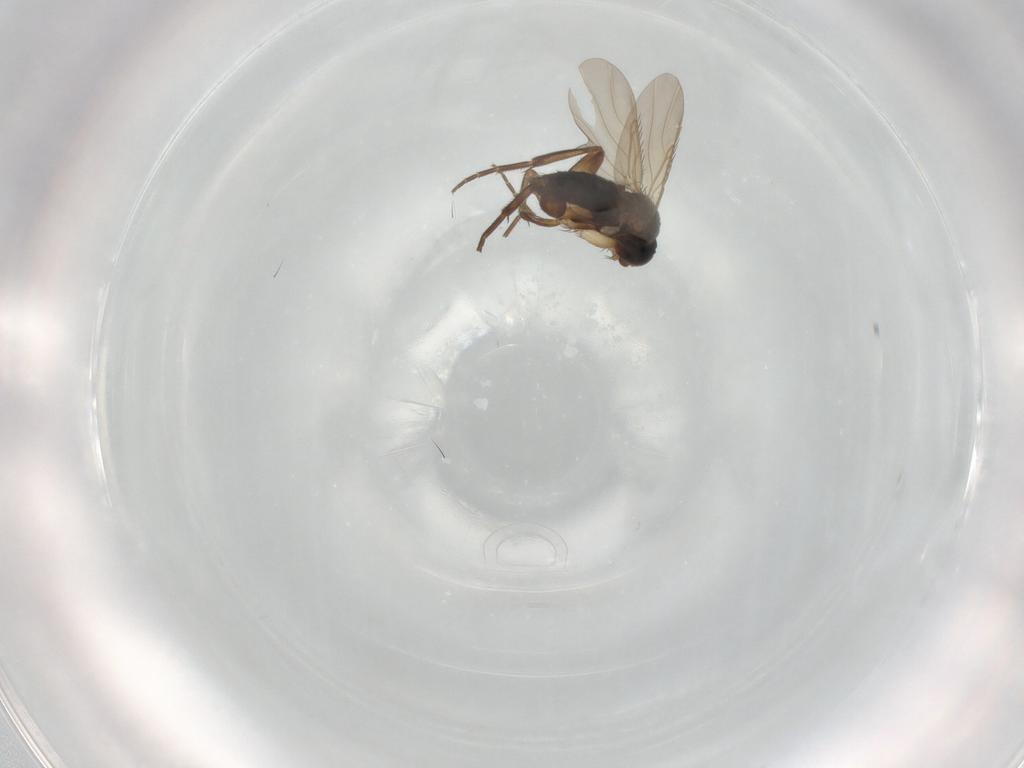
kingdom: Animalia
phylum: Arthropoda
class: Insecta
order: Diptera
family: Phoridae
